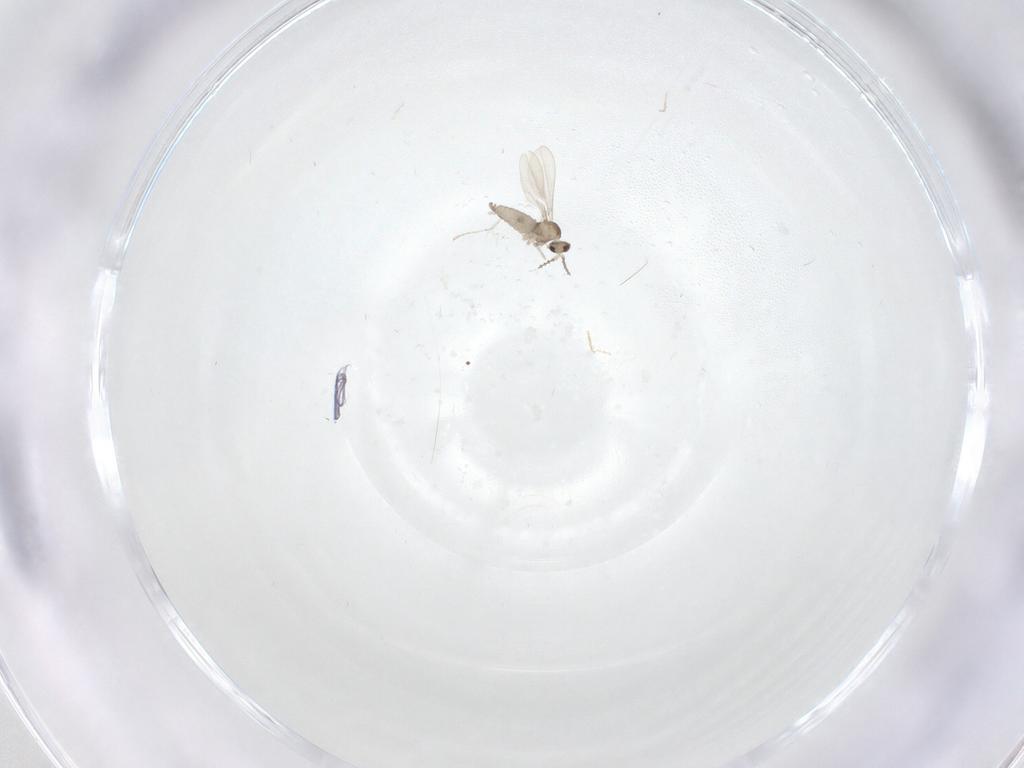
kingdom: Animalia
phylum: Arthropoda
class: Insecta
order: Diptera
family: Cecidomyiidae
